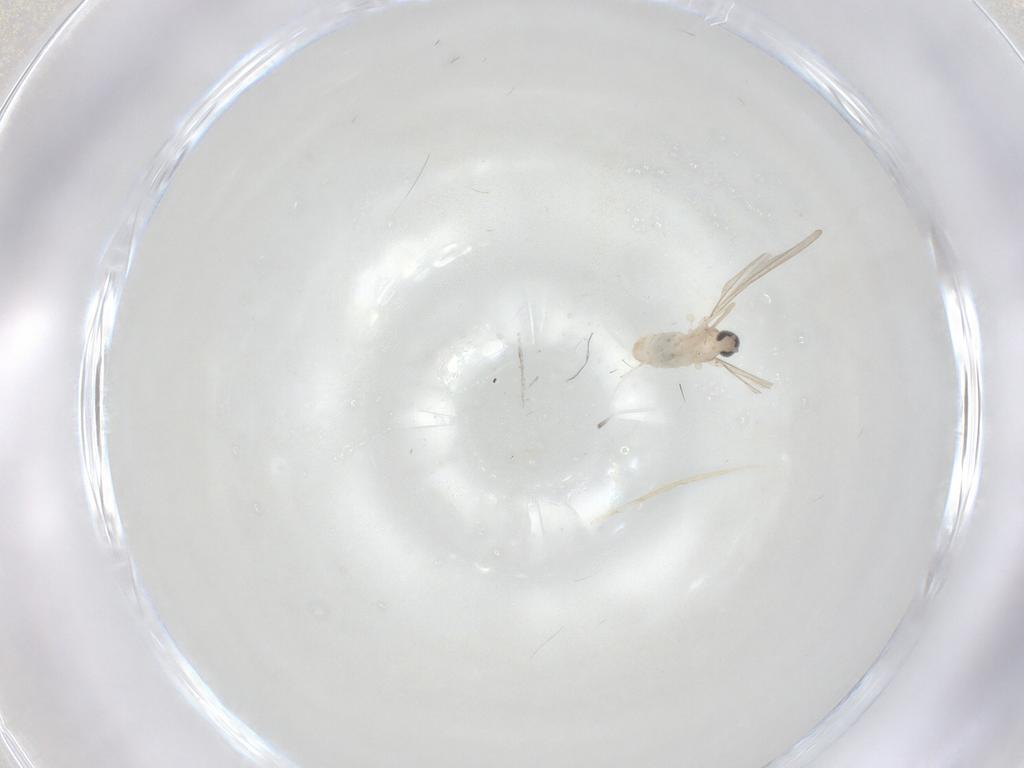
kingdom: Animalia
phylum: Arthropoda
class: Insecta
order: Diptera
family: Cecidomyiidae
